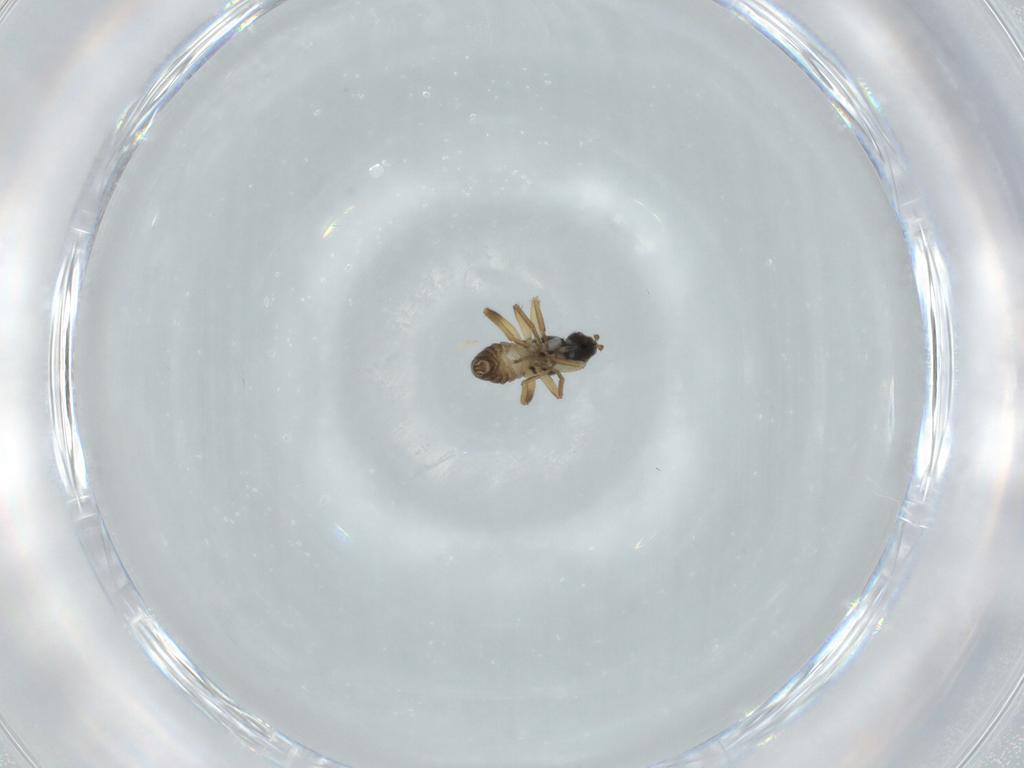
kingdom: Animalia
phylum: Arthropoda
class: Insecta
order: Diptera
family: Hybotidae
